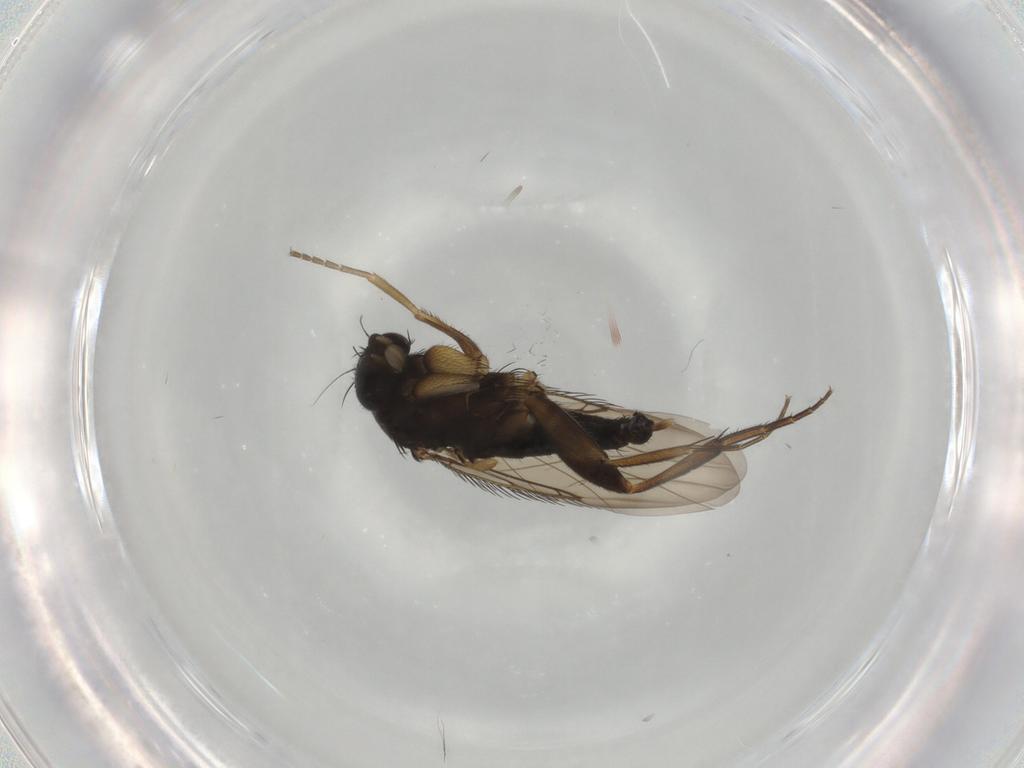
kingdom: Animalia
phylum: Arthropoda
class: Insecta
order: Diptera
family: Phoridae
